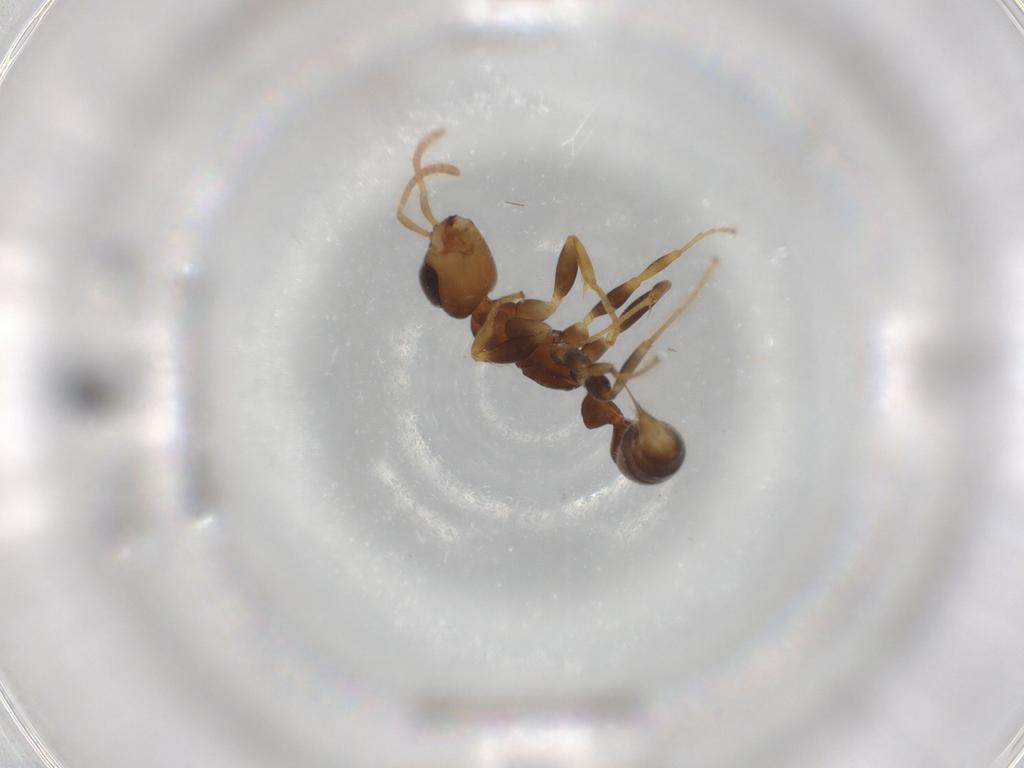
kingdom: Animalia
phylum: Arthropoda
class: Insecta
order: Hymenoptera
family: Formicidae
